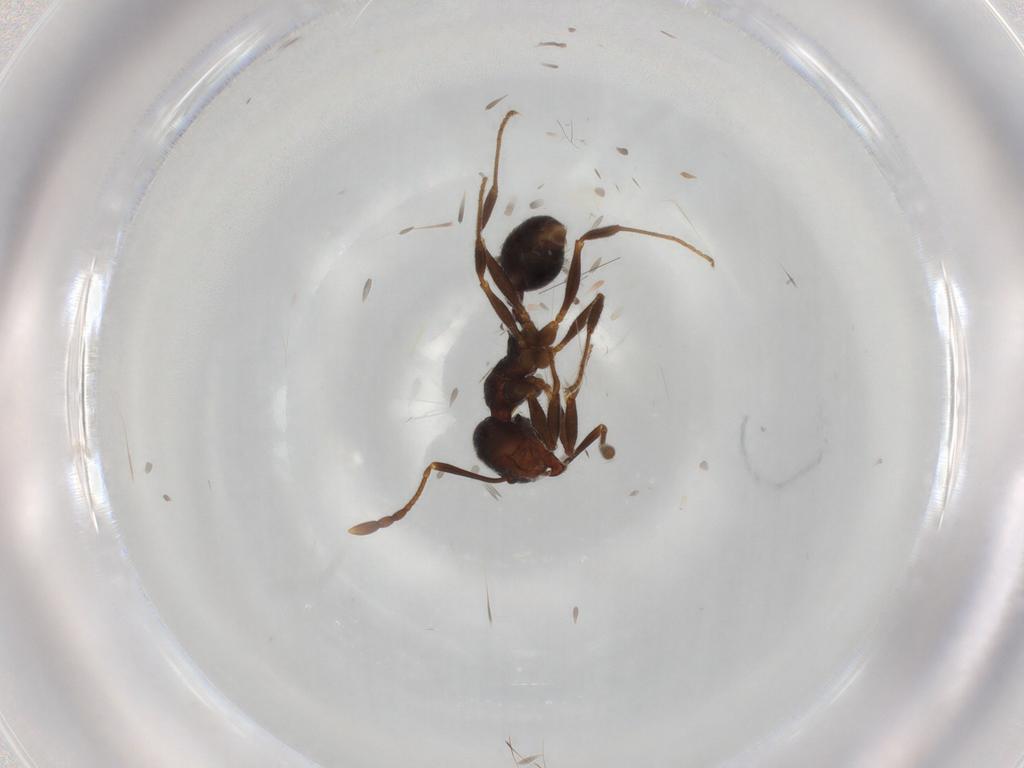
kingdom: Animalia
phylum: Arthropoda
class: Insecta
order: Hymenoptera
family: Formicidae
